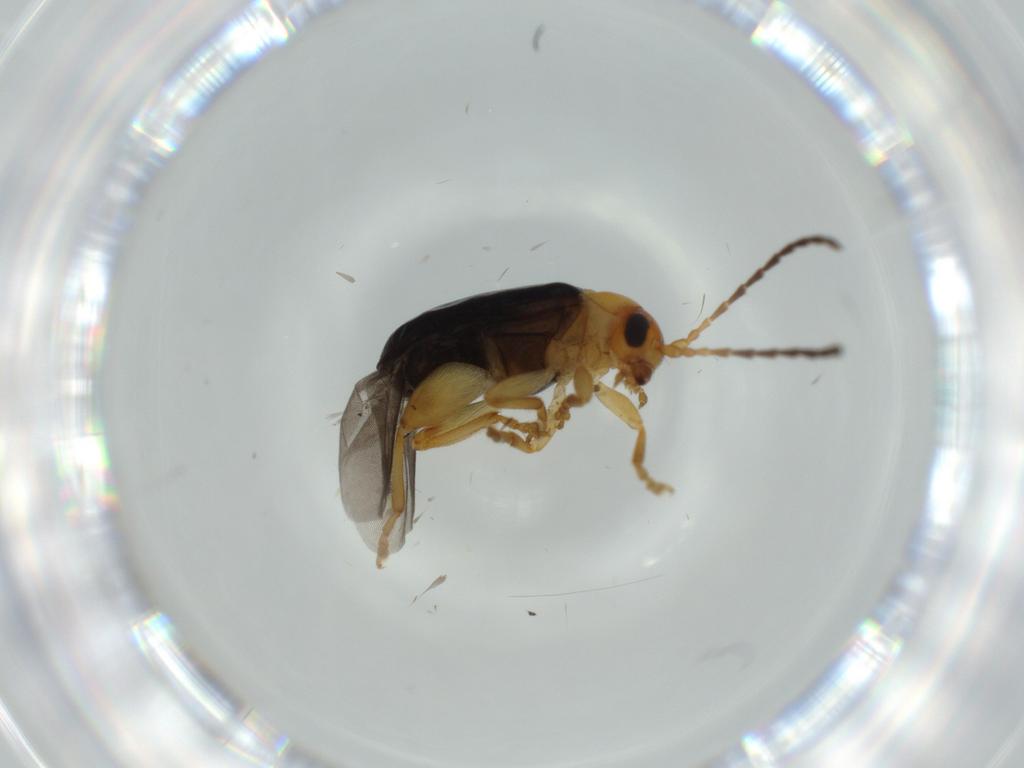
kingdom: Animalia
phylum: Arthropoda
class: Insecta
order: Coleoptera
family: Chrysomelidae
